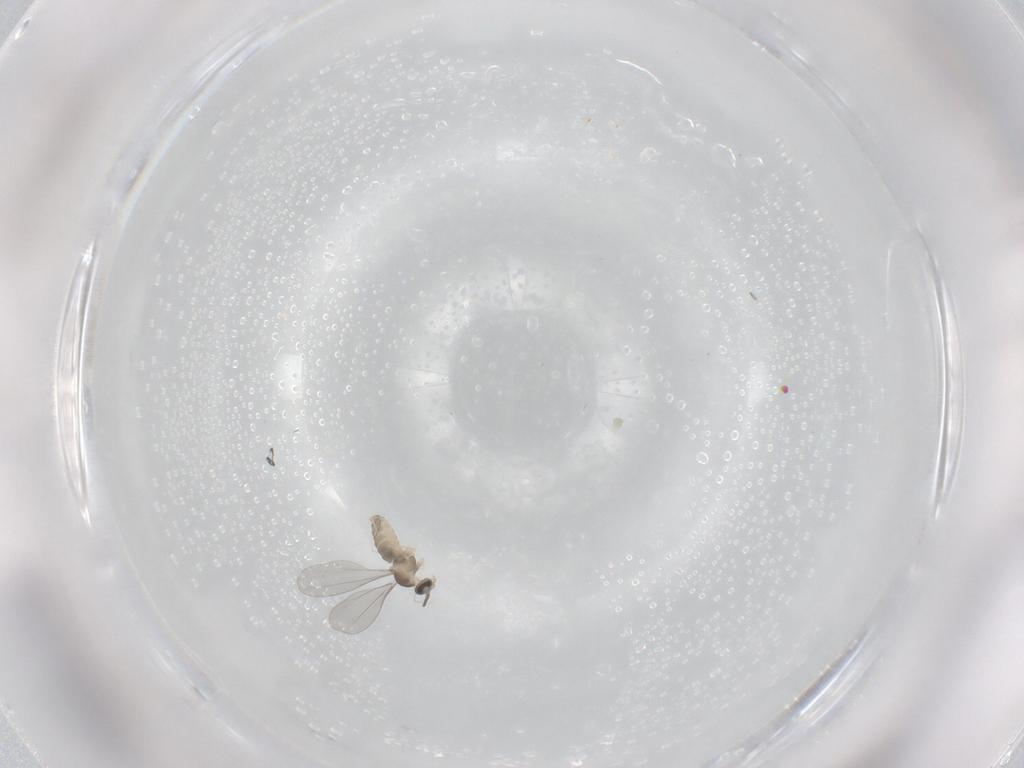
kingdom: Animalia
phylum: Arthropoda
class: Insecta
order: Diptera
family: Cecidomyiidae
